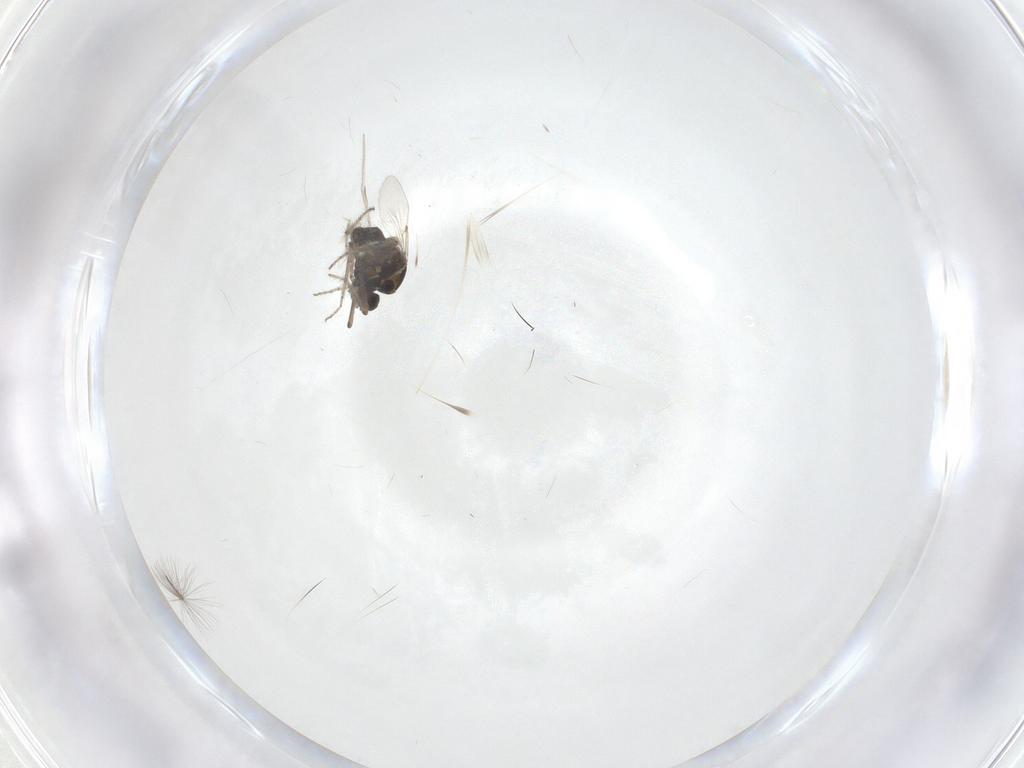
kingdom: Animalia
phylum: Arthropoda
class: Insecta
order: Diptera
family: Ceratopogonidae
